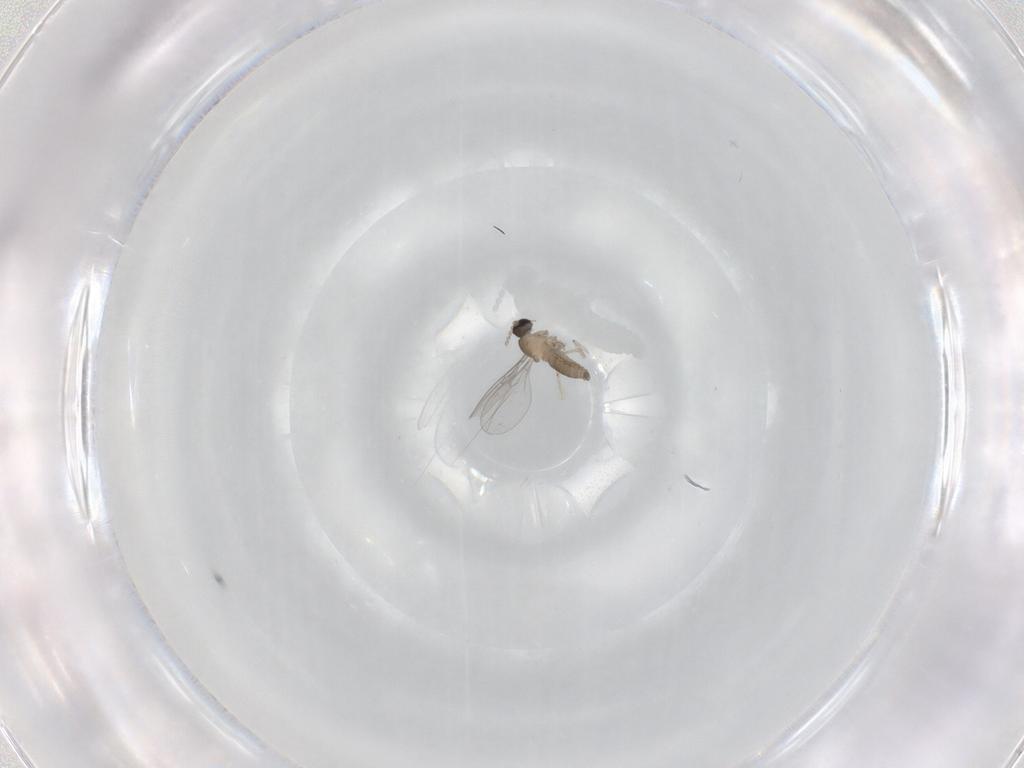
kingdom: Animalia
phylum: Arthropoda
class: Insecta
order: Diptera
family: Cecidomyiidae
